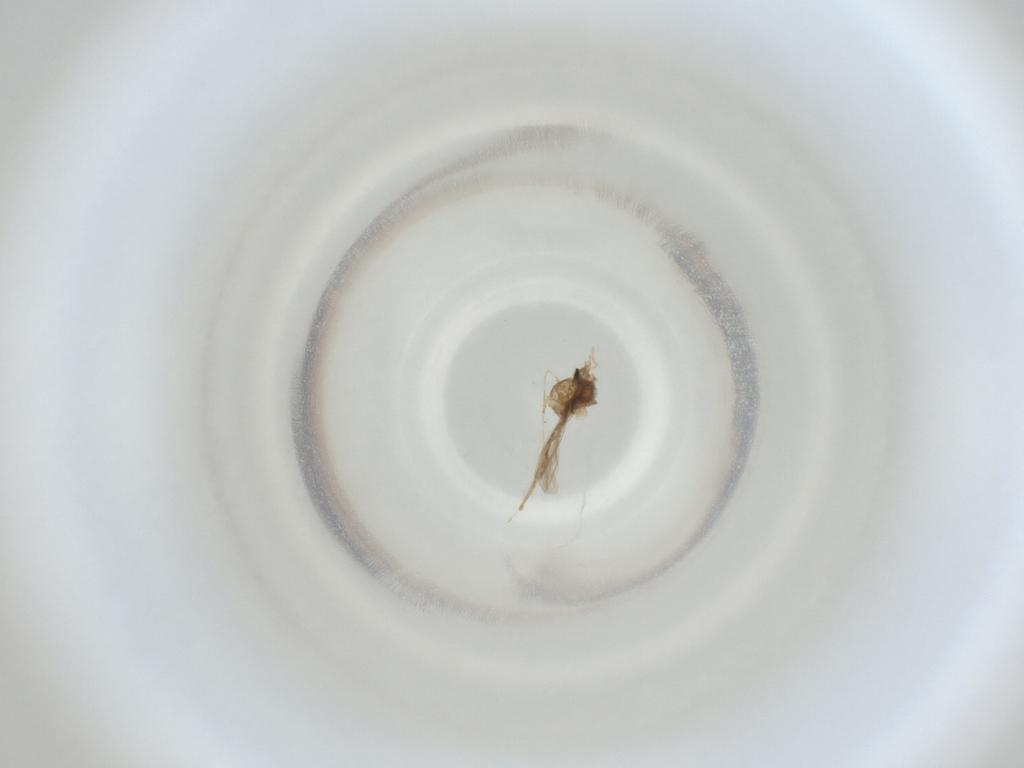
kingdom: Animalia
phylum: Arthropoda
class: Insecta
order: Diptera
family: Cecidomyiidae
